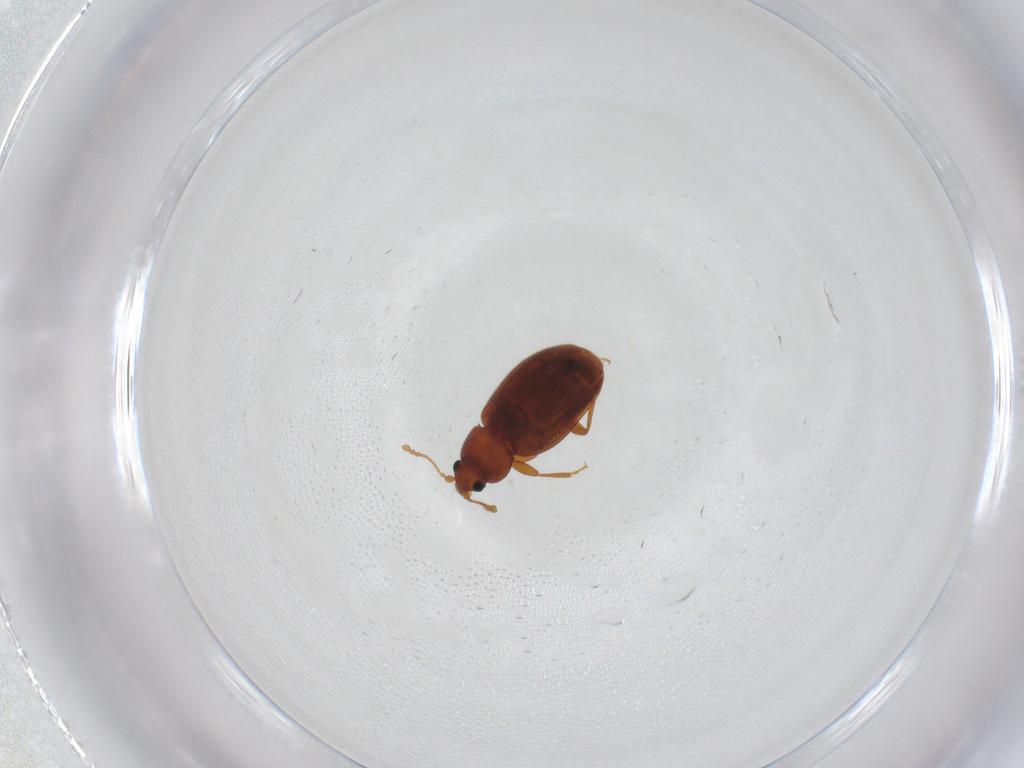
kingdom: Animalia
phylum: Arthropoda
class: Insecta
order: Coleoptera
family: Latridiidae
